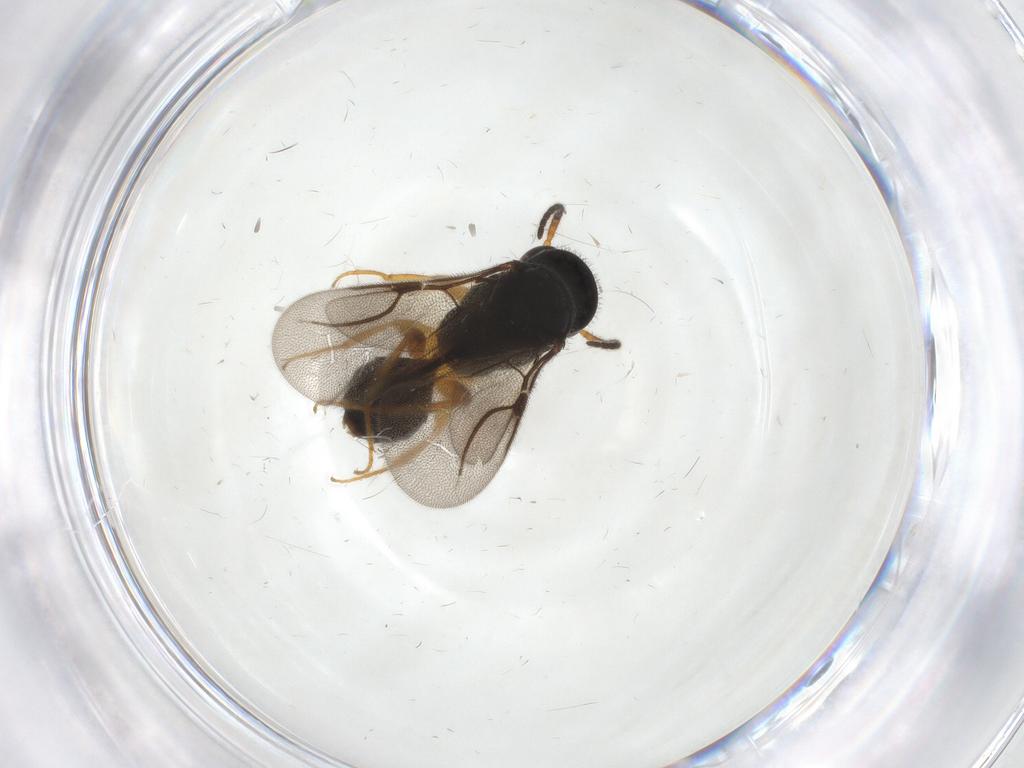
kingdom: Animalia
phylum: Arthropoda
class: Insecta
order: Hymenoptera
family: Bethylidae
